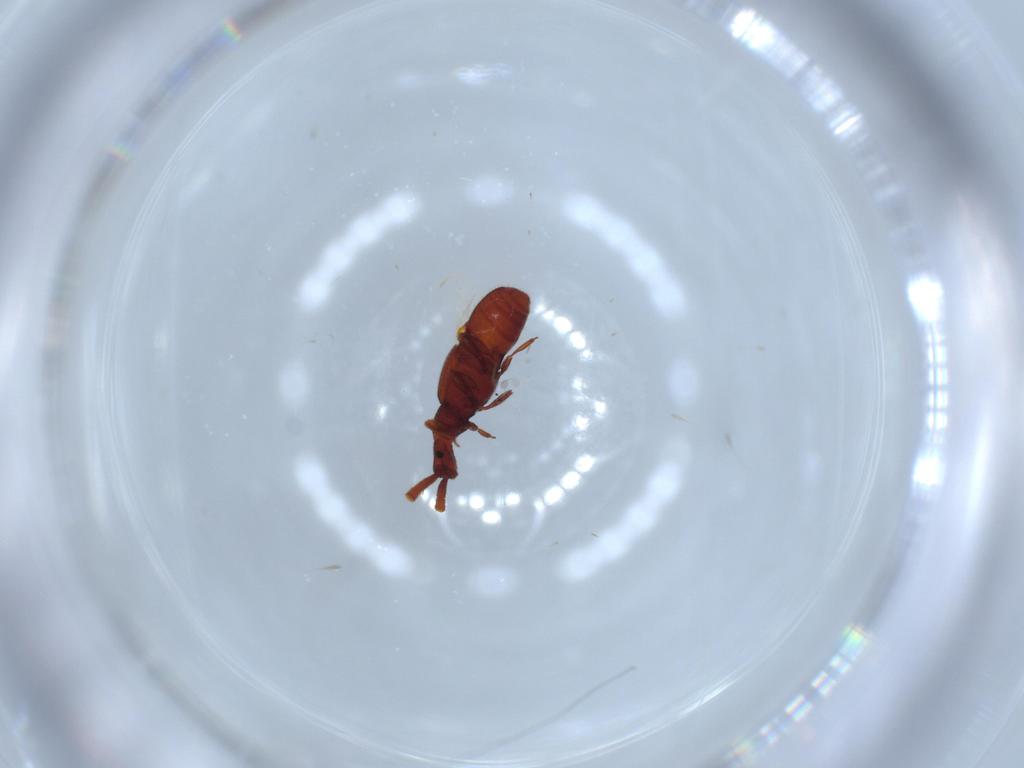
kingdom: Animalia
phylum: Arthropoda
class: Insecta
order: Coleoptera
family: Staphylinidae
